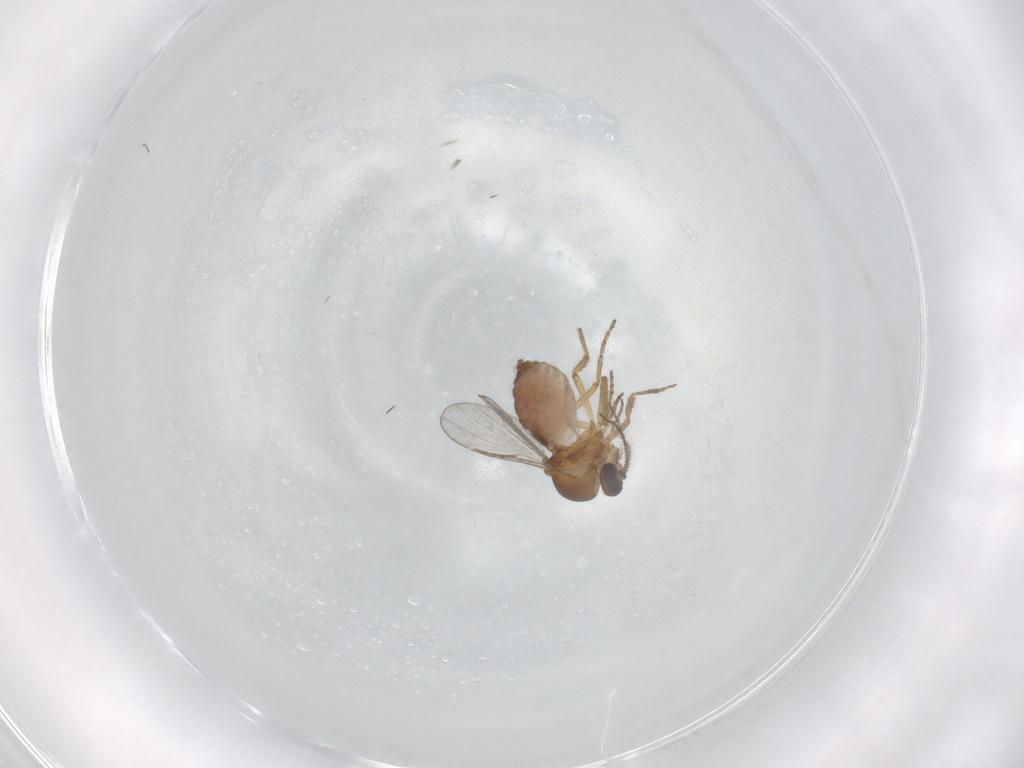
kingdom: Animalia
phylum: Arthropoda
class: Insecta
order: Diptera
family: Ceratopogonidae
